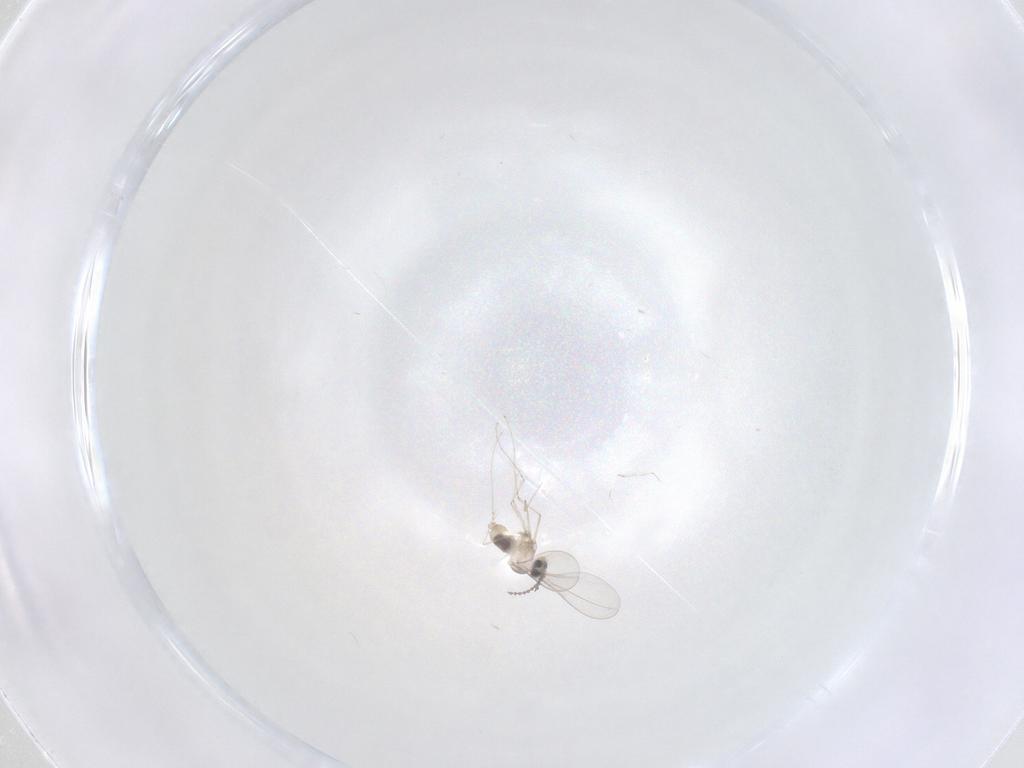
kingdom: Animalia
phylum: Arthropoda
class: Insecta
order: Diptera
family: Cecidomyiidae
